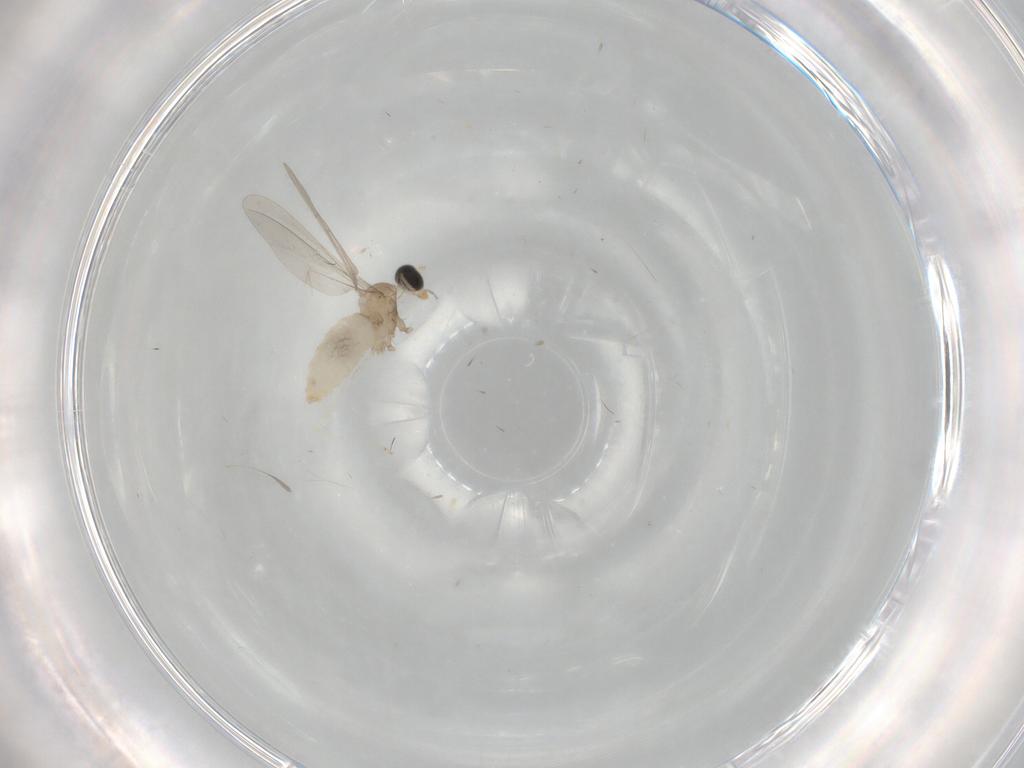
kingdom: Animalia
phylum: Arthropoda
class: Insecta
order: Diptera
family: Cecidomyiidae
